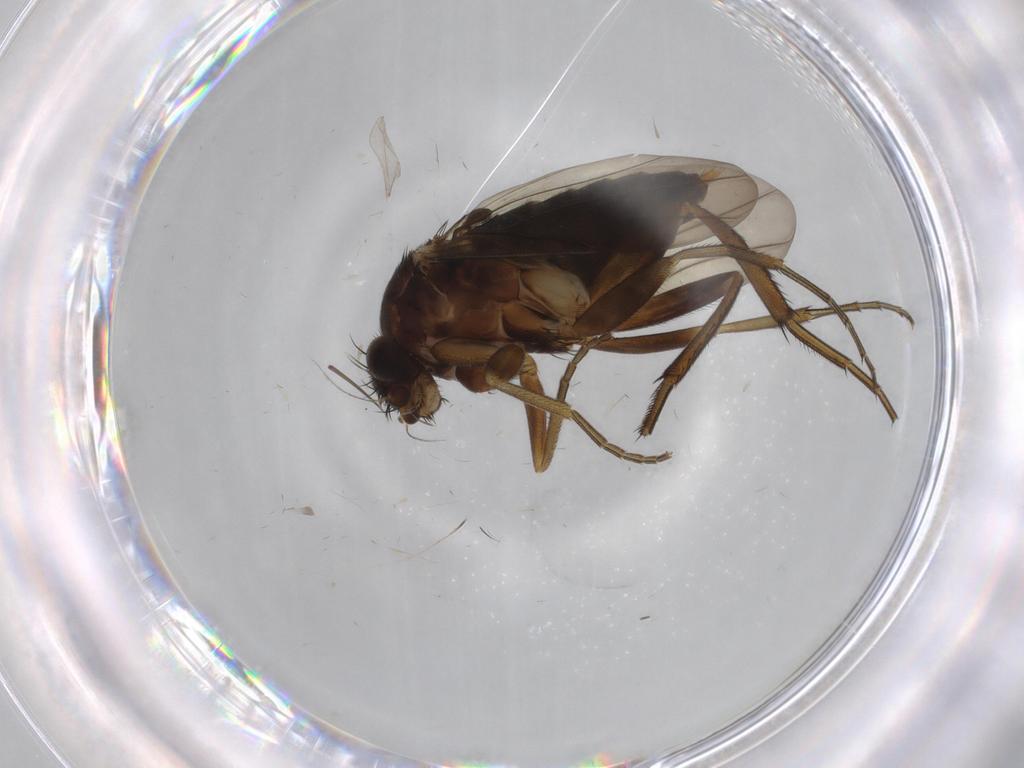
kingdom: Animalia
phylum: Arthropoda
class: Insecta
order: Diptera
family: Phoridae
